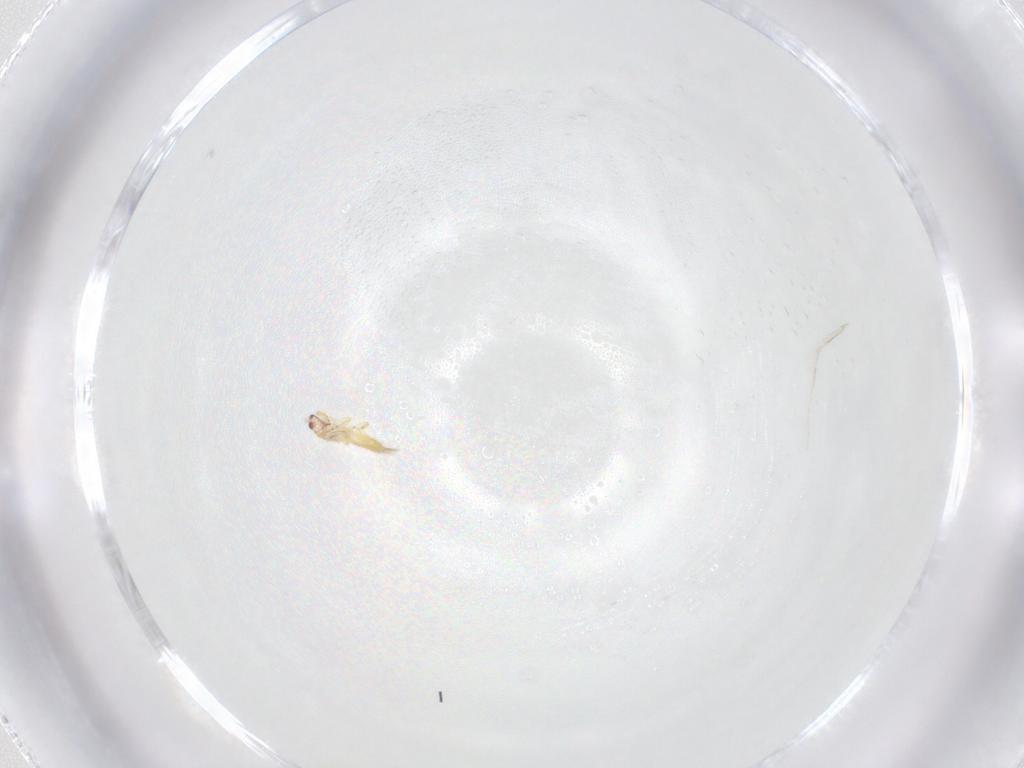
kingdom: Animalia
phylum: Arthropoda
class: Insecta
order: Thysanoptera
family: Thripidae
